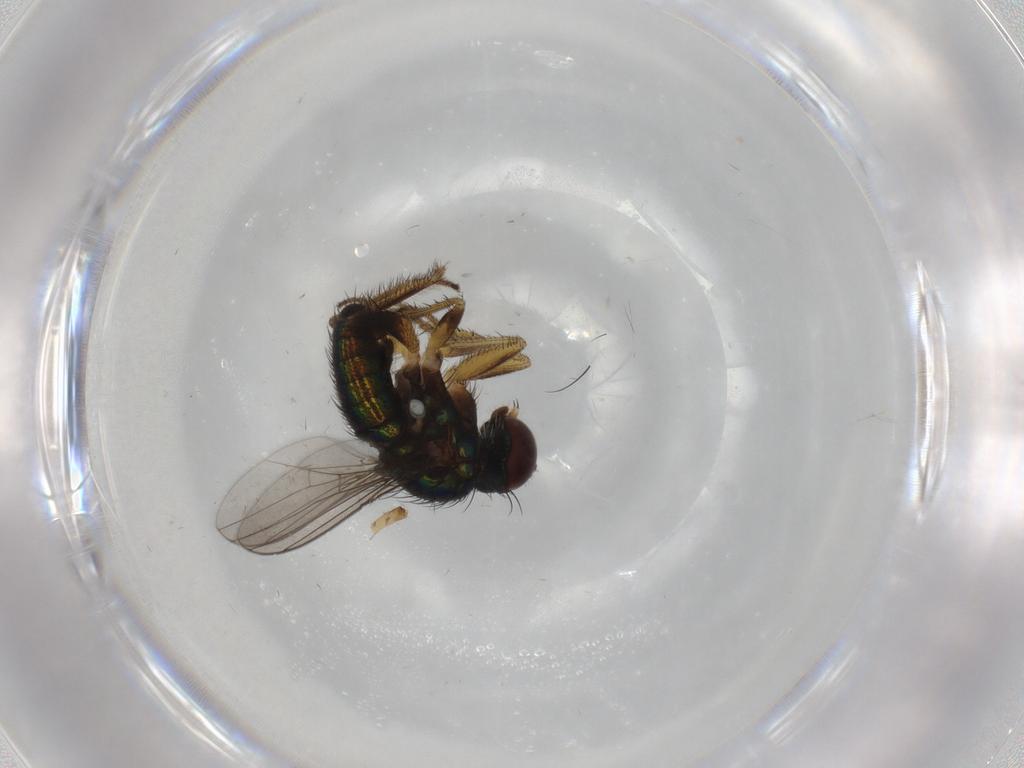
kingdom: Animalia
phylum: Arthropoda
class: Insecta
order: Diptera
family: Dolichopodidae
